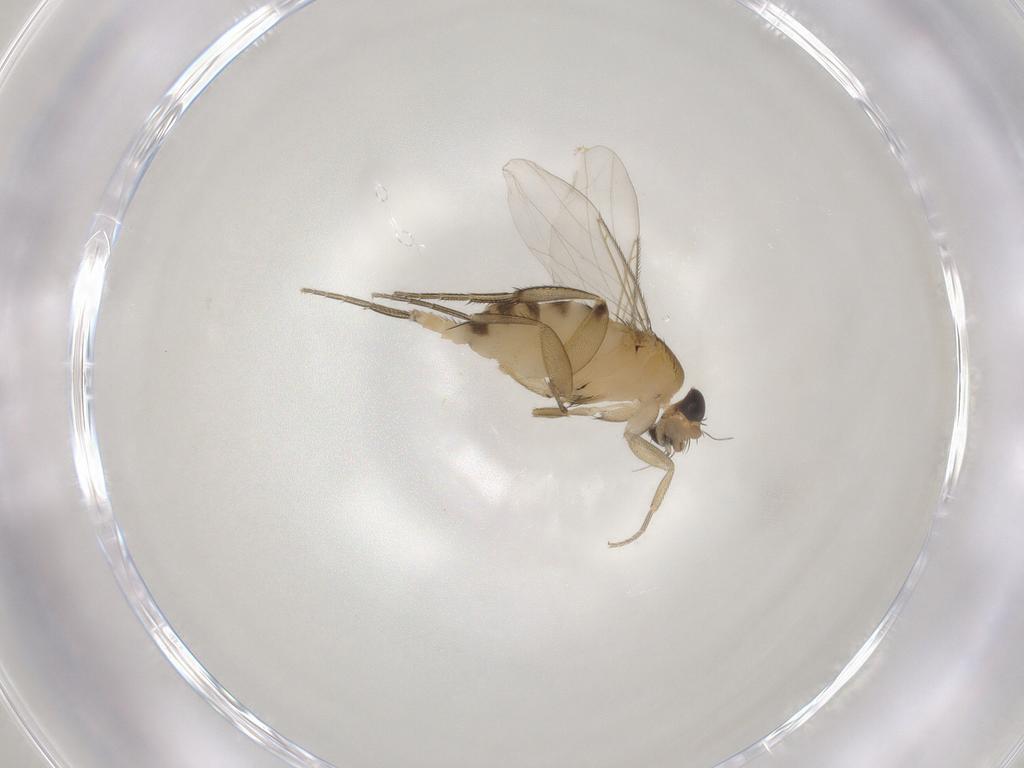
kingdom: Animalia
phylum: Arthropoda
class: Insecta
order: Diptera
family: Phoridae
